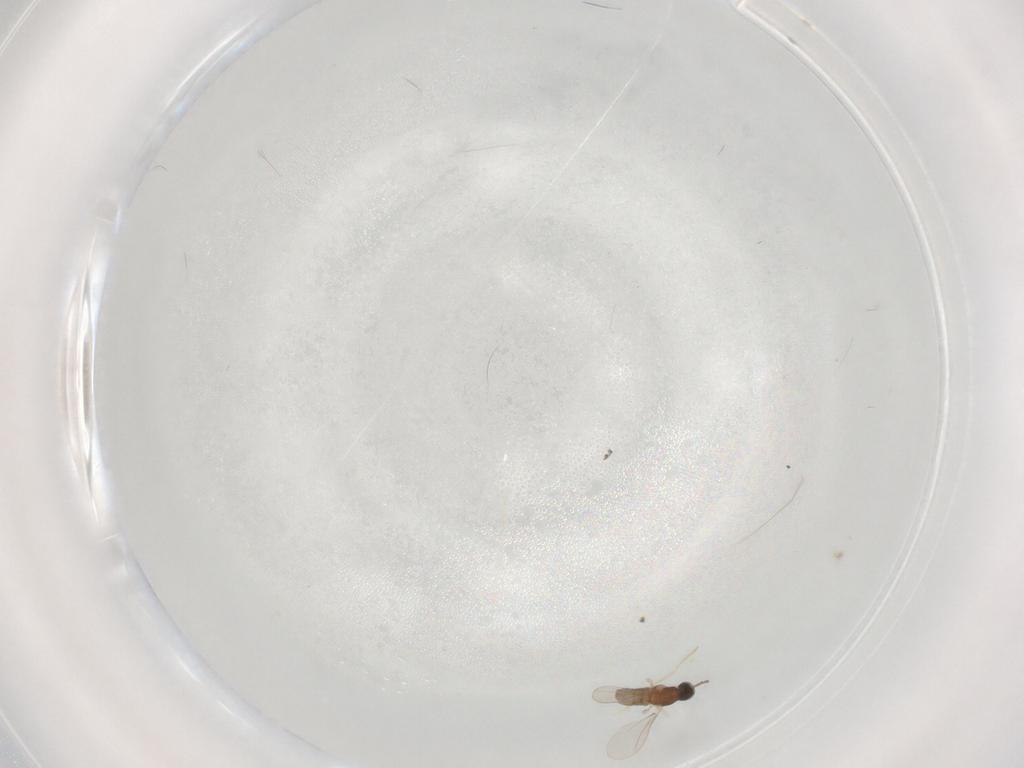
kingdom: Animalia
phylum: Arthropoda
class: Insecta
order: Diptera
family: Cecidomyiidae
